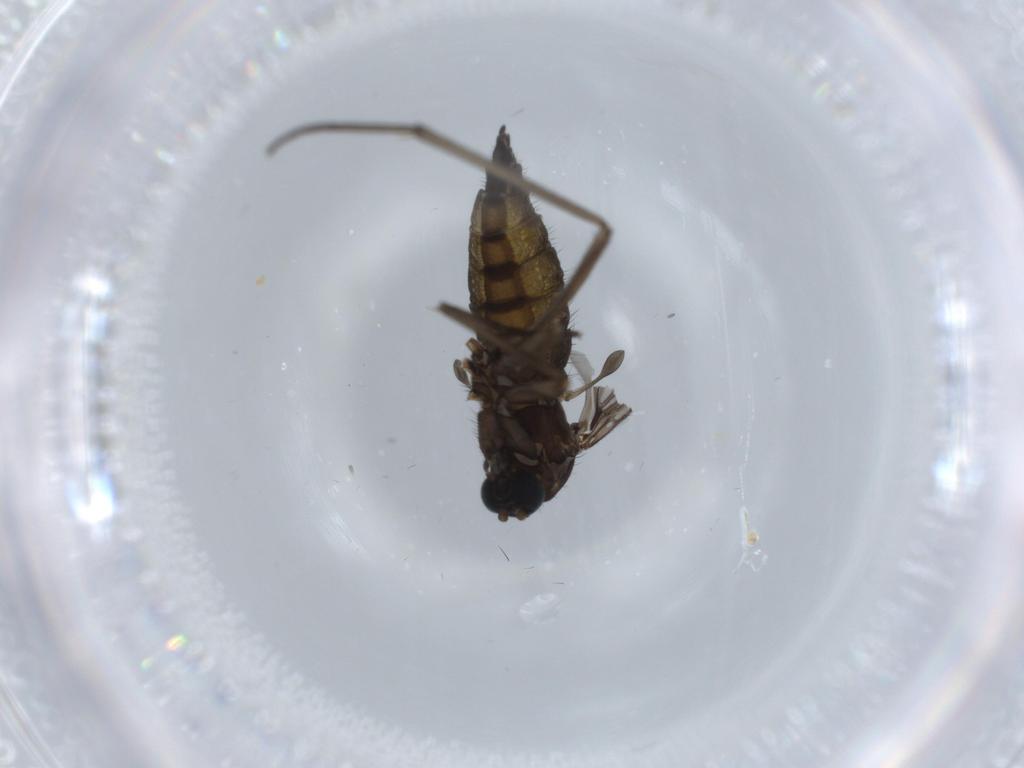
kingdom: Animalia
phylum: Arthropoda
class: Insecta
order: Diptera
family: Sciaridae
